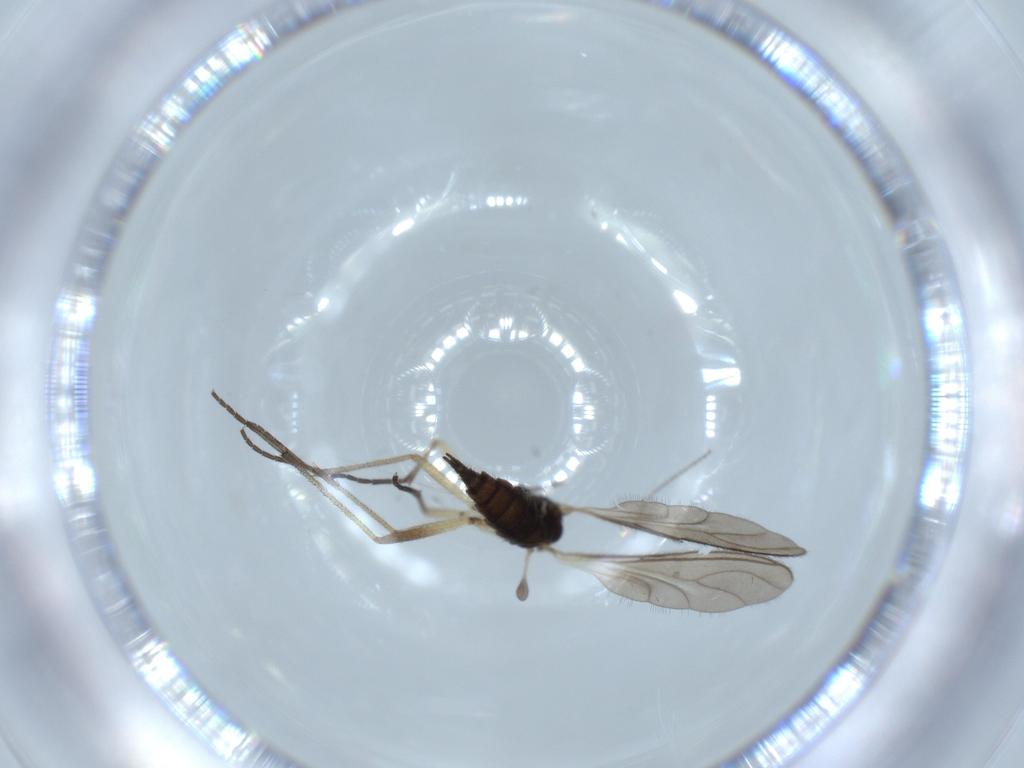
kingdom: Animalia
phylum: Arthropoda
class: Insecta
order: Diptera
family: Sciaridae
